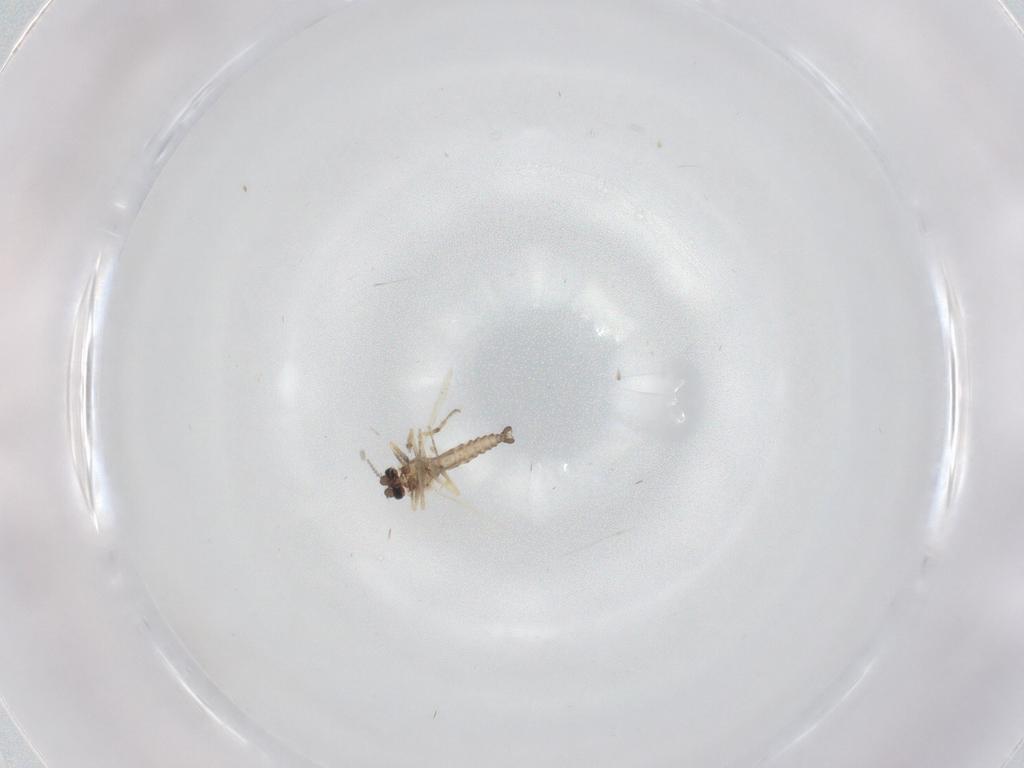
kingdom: Animalia
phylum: Arthropoda
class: Insecta
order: Diptera
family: Ceratopogonidae
